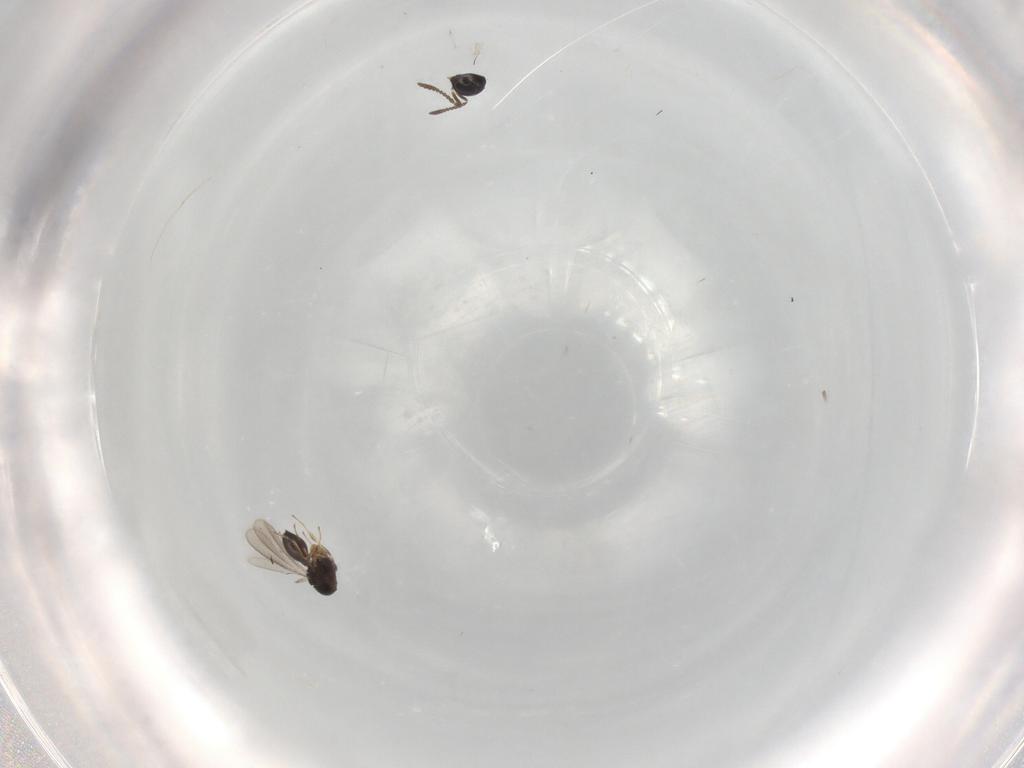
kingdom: Animalia
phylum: Arthropoda
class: Insecta
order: Hymenoptera
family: Scelionidae
